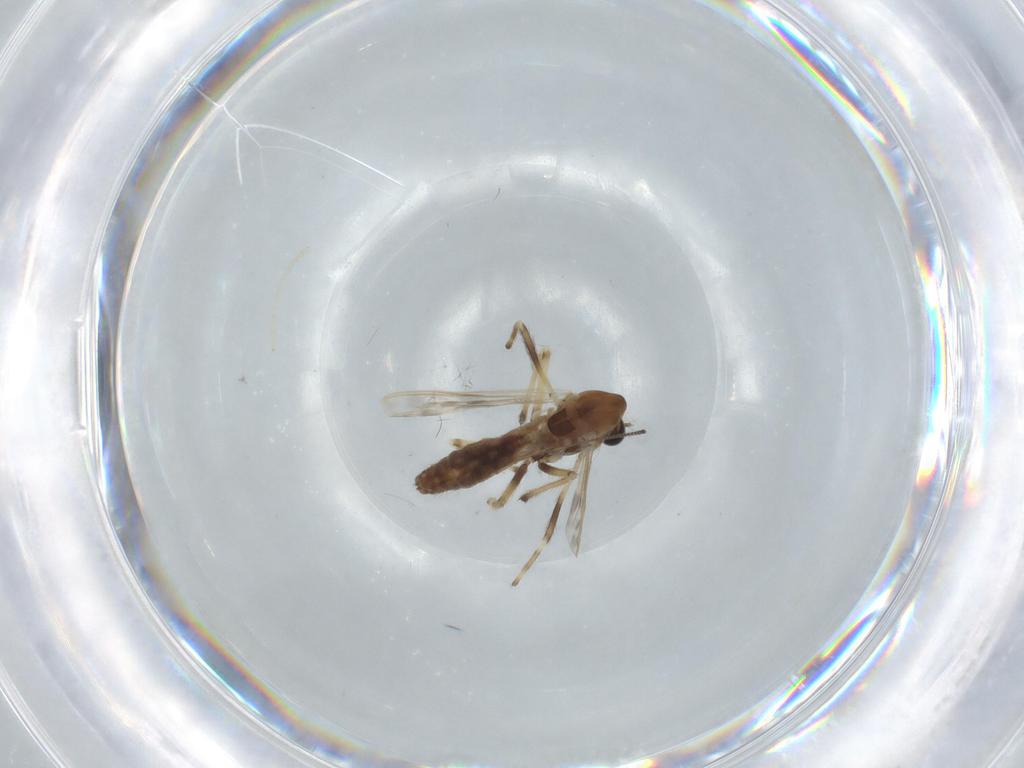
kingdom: Animalia
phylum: Arthropoda
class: Insecta
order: Diptera
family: Chironomidae
